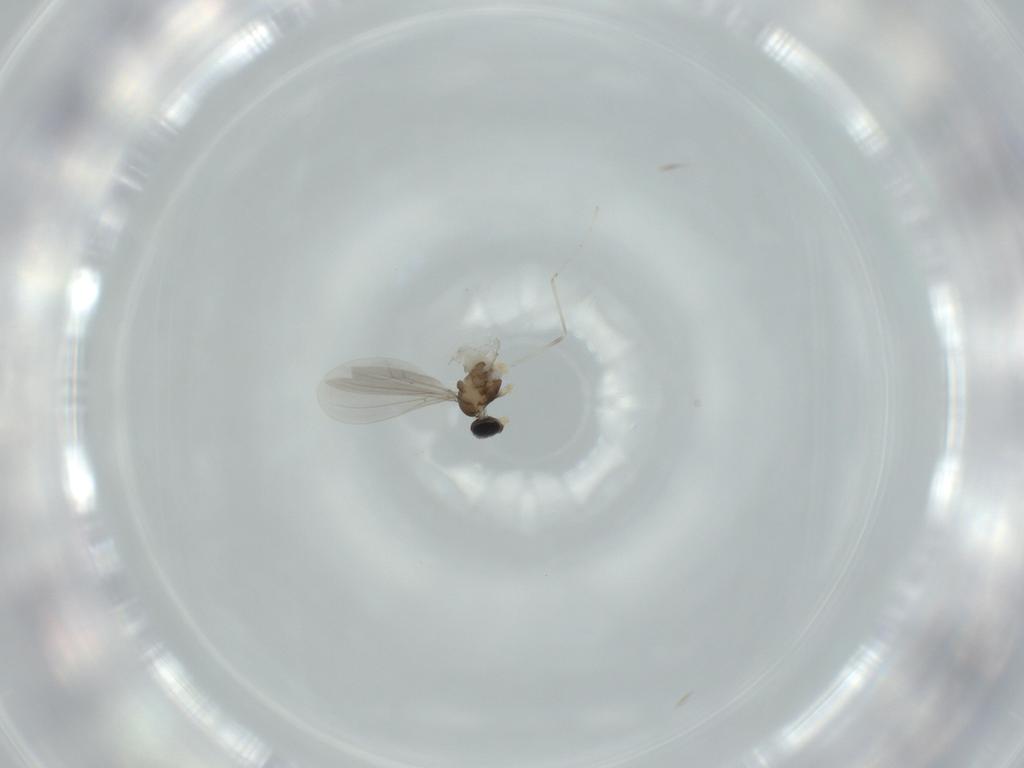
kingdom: Animalia
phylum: Arthropoda
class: Insecta
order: Diptera
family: Cecidomyiidae
